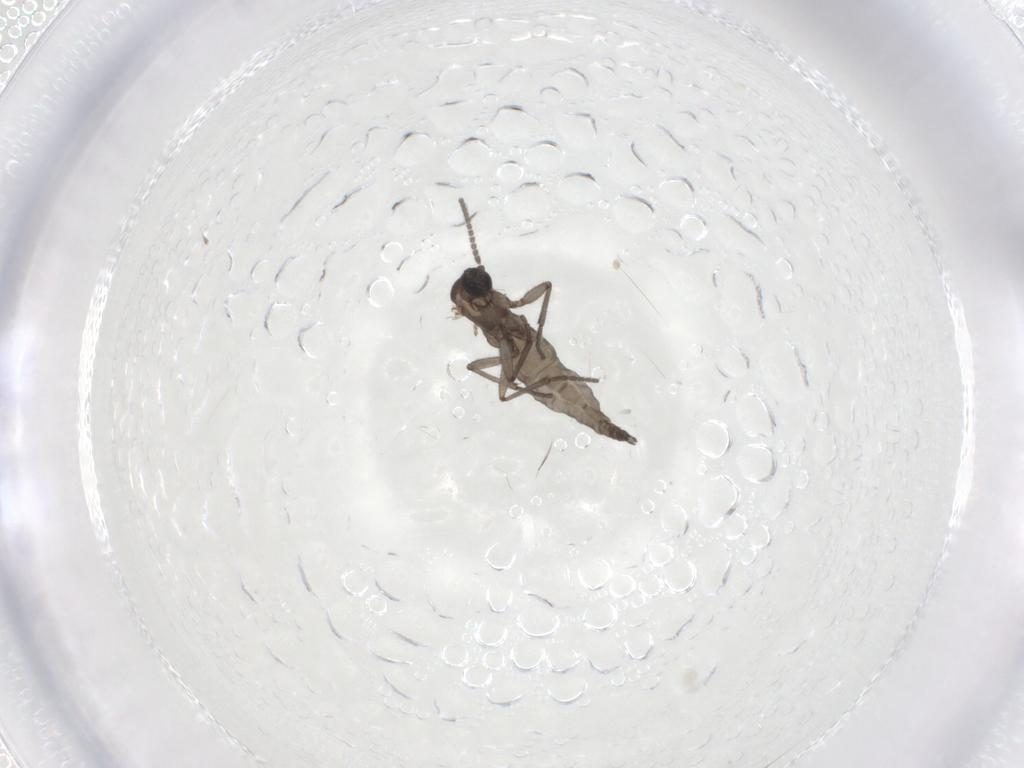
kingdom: Animalia
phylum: Arthropoda
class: Insecta
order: Diptera
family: Sciaridae
